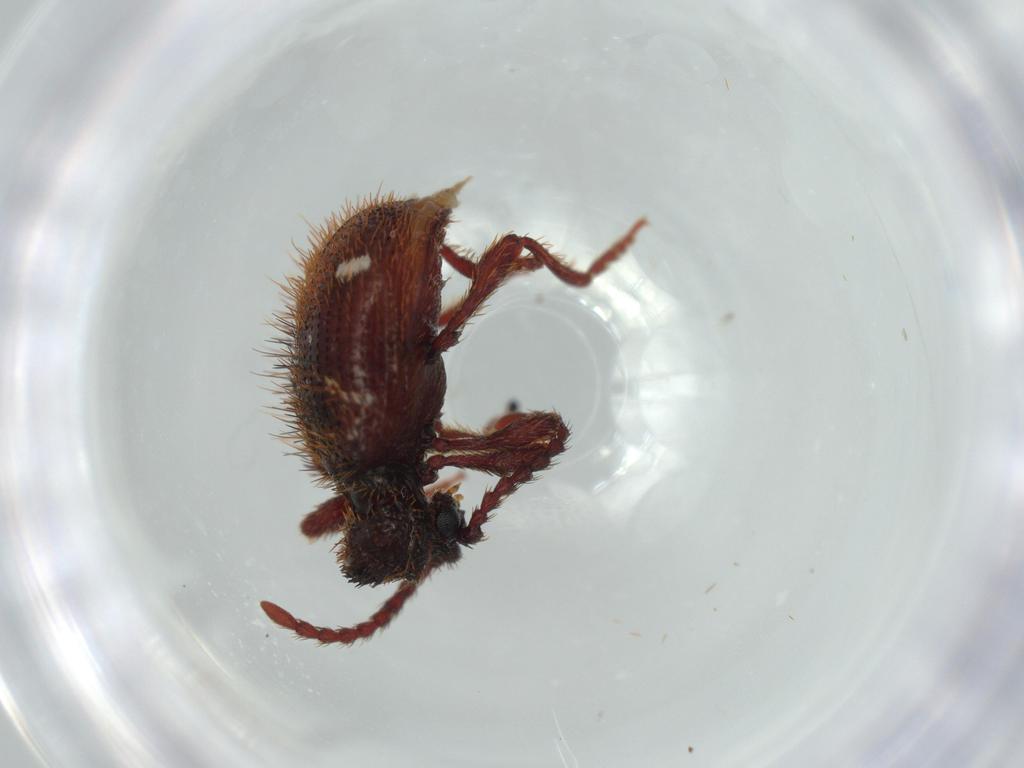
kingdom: Animalia
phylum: Arthropoda
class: Insecta
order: Coleoptera
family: Ptinidae
